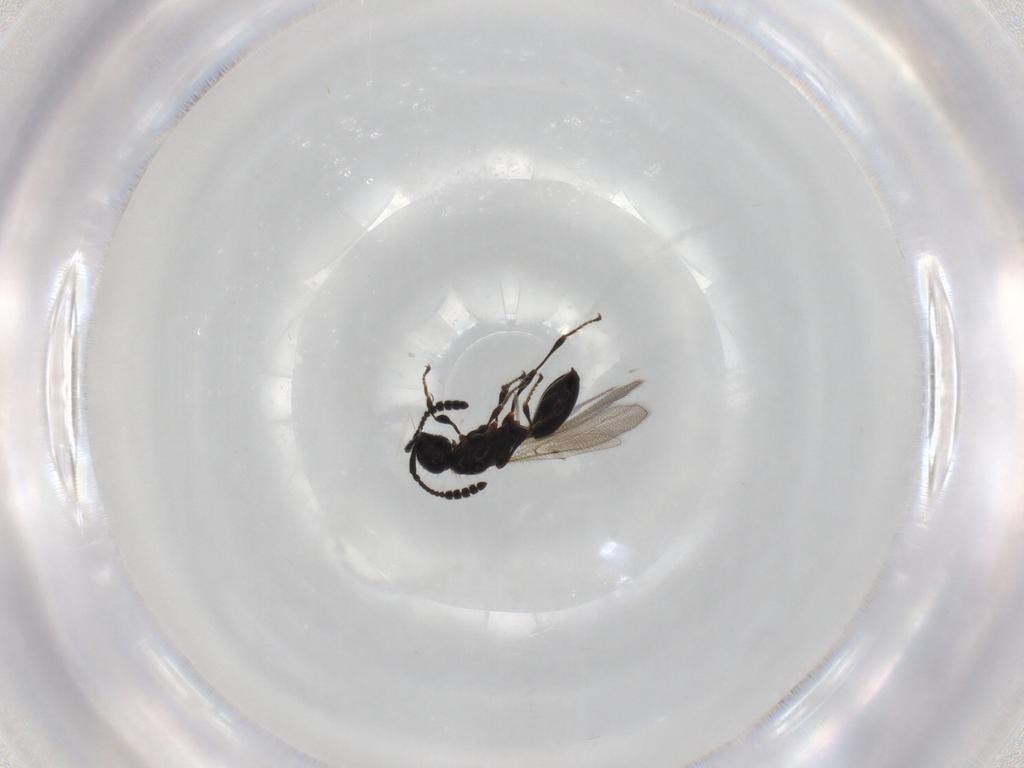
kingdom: Animalia
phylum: Arthropoda
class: Insecta
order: Hymenoptera
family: Diapriidae
